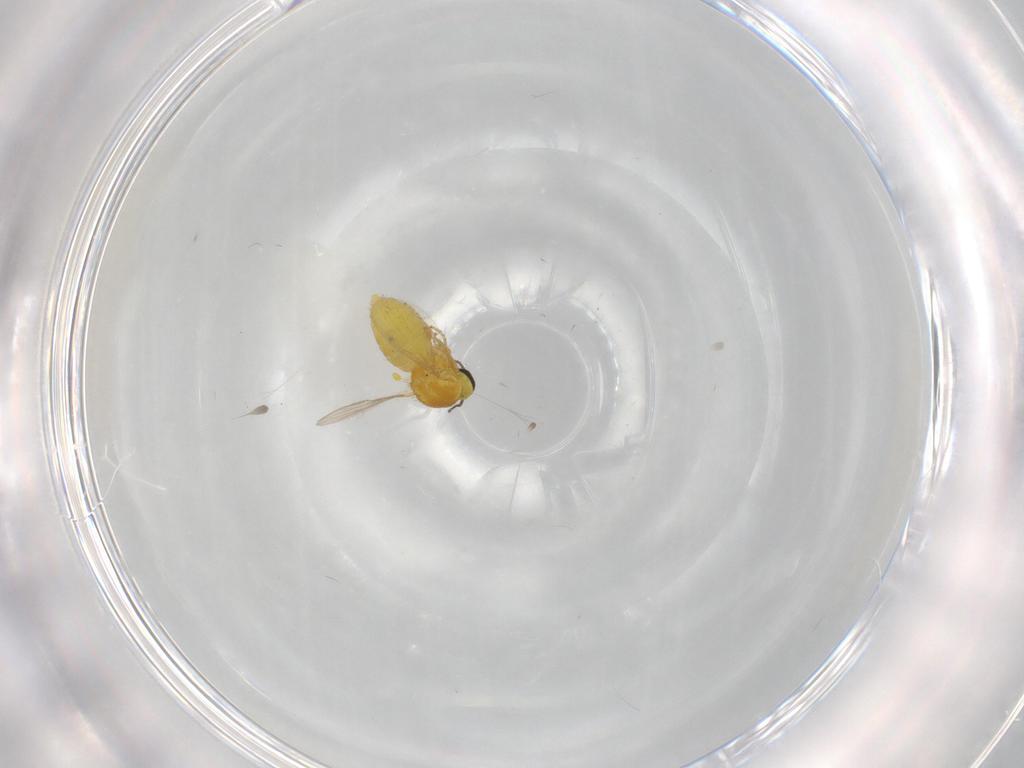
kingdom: Animalia
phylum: Arthropoda
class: Insecta
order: Diptera
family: Ceratopogonidae
